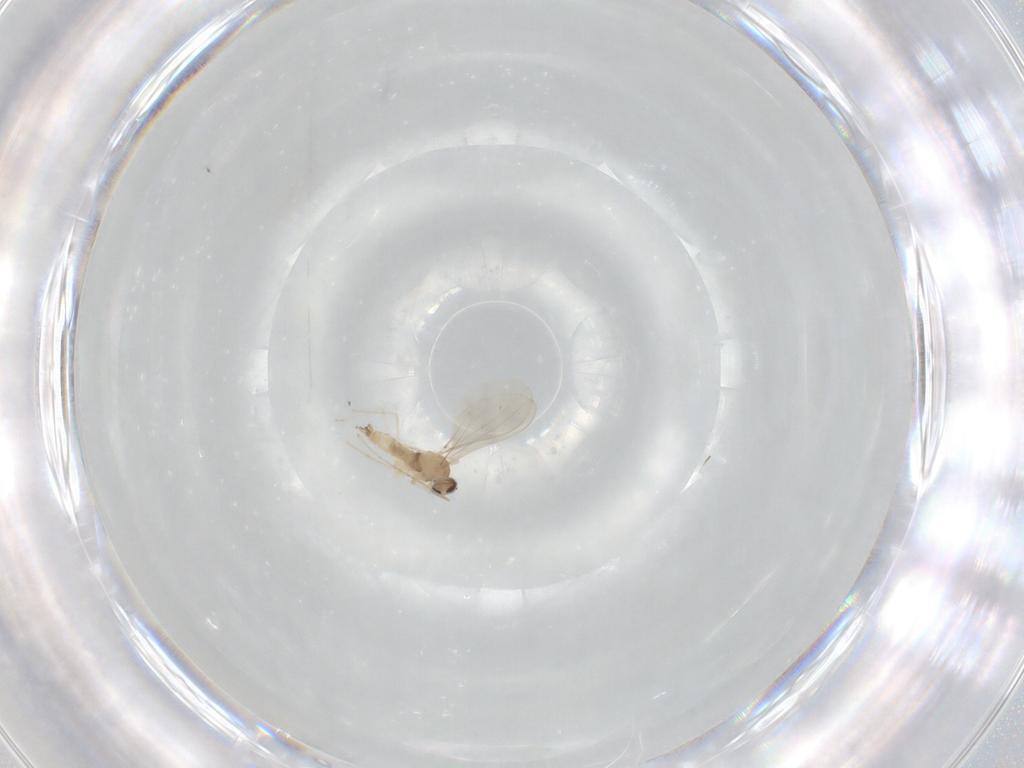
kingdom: Animalia
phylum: Arthropoda
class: Insecta
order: Diptera
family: Cecidomyiidae
